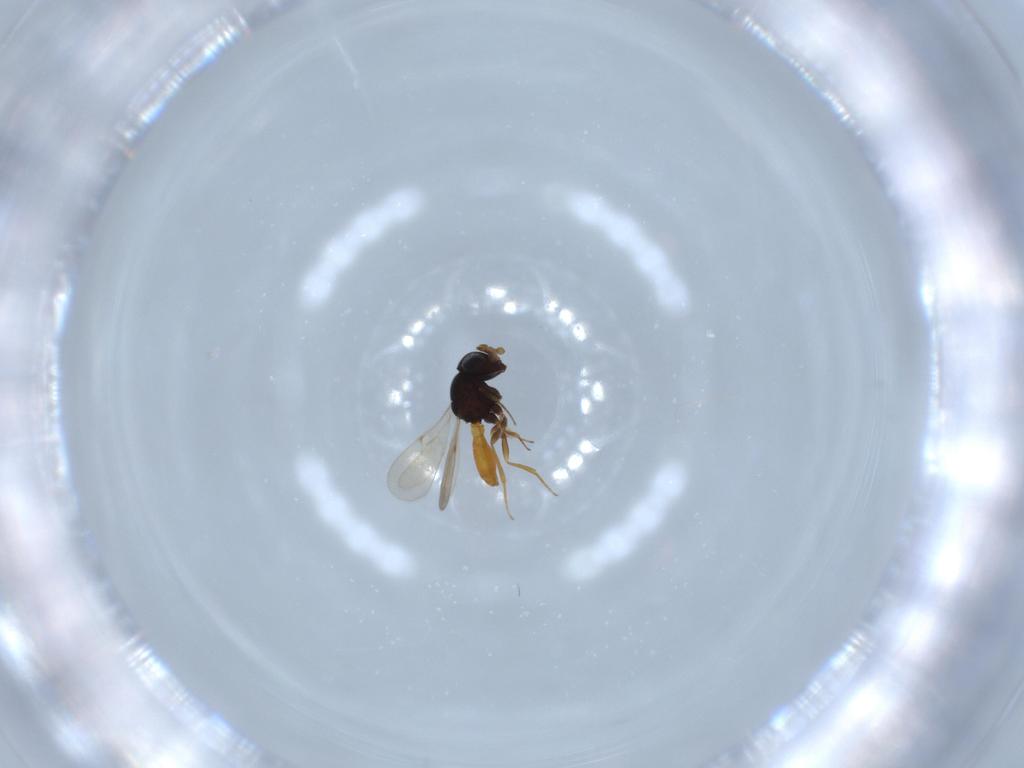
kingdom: Animalia
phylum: Arthropoda
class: Insecta
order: Hymenoptera
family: Scelionidae
